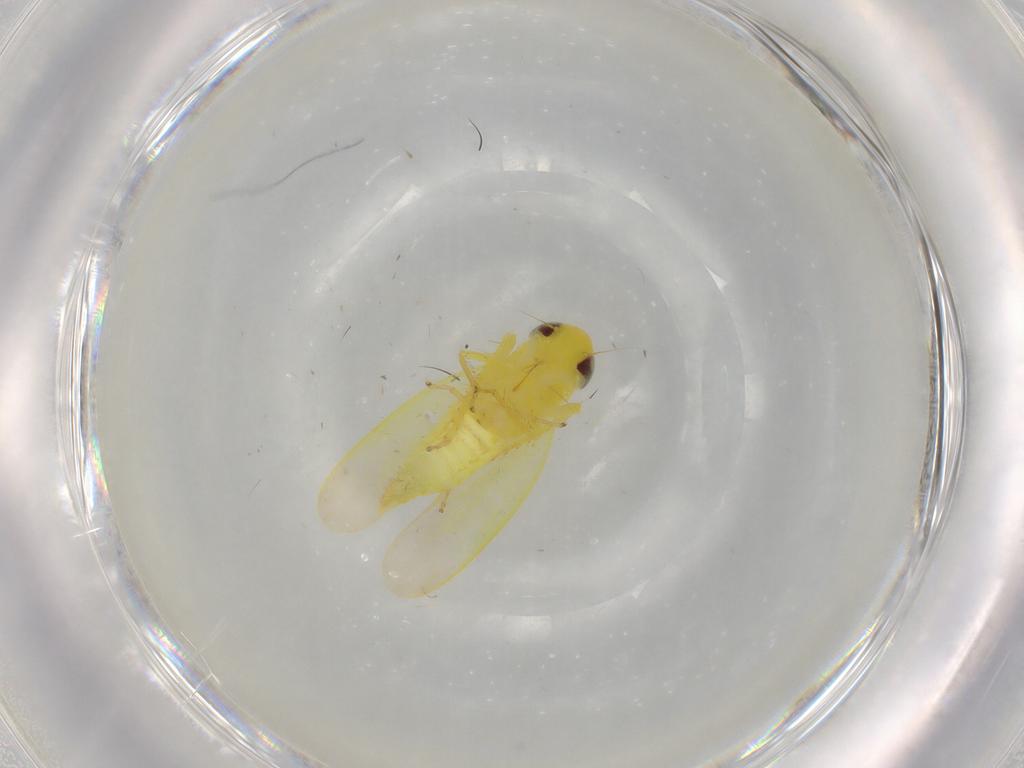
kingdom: Animalia
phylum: Arthropoda
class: Insecta
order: Hemiptera
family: Cicadellidae
